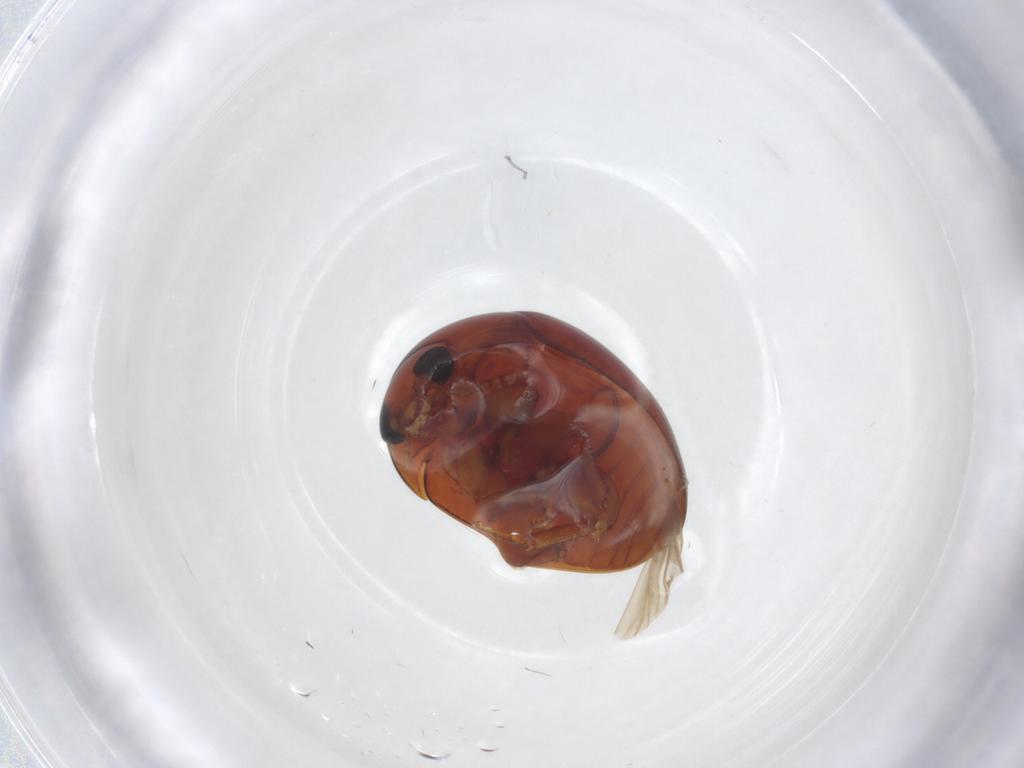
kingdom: Animalia
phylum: Arthropoda
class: Insecta
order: Coleoptera
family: Phalacridae
